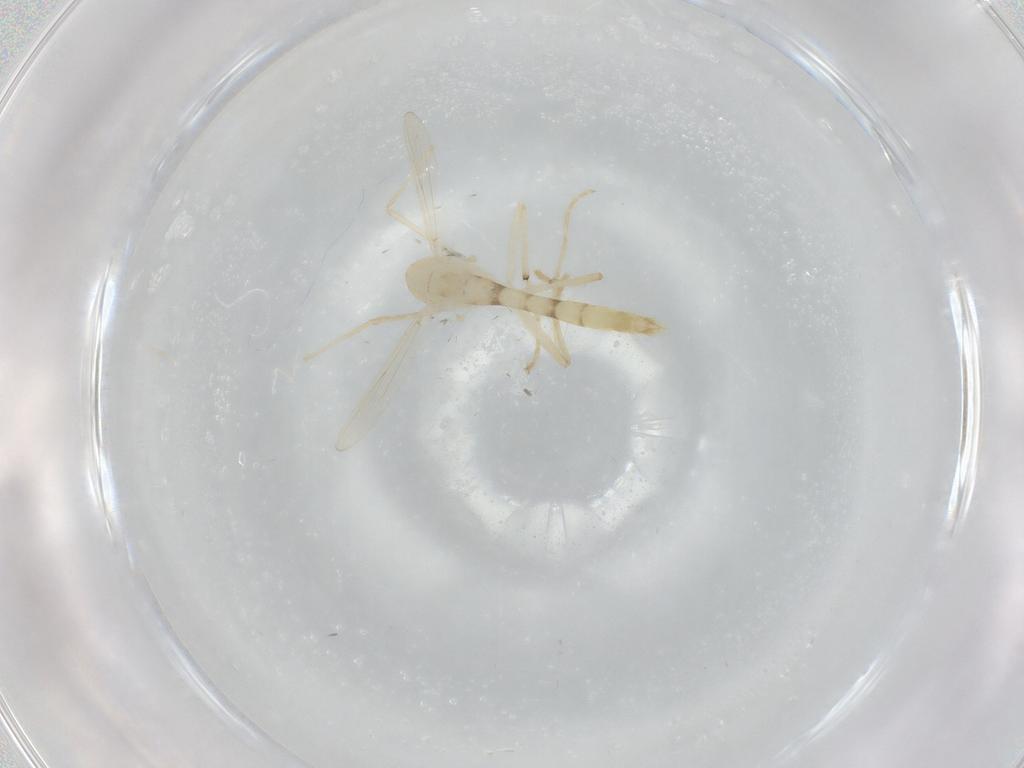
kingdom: Animalia
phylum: Arthropoda
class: Insecta
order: Diptera
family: Chironomidae
